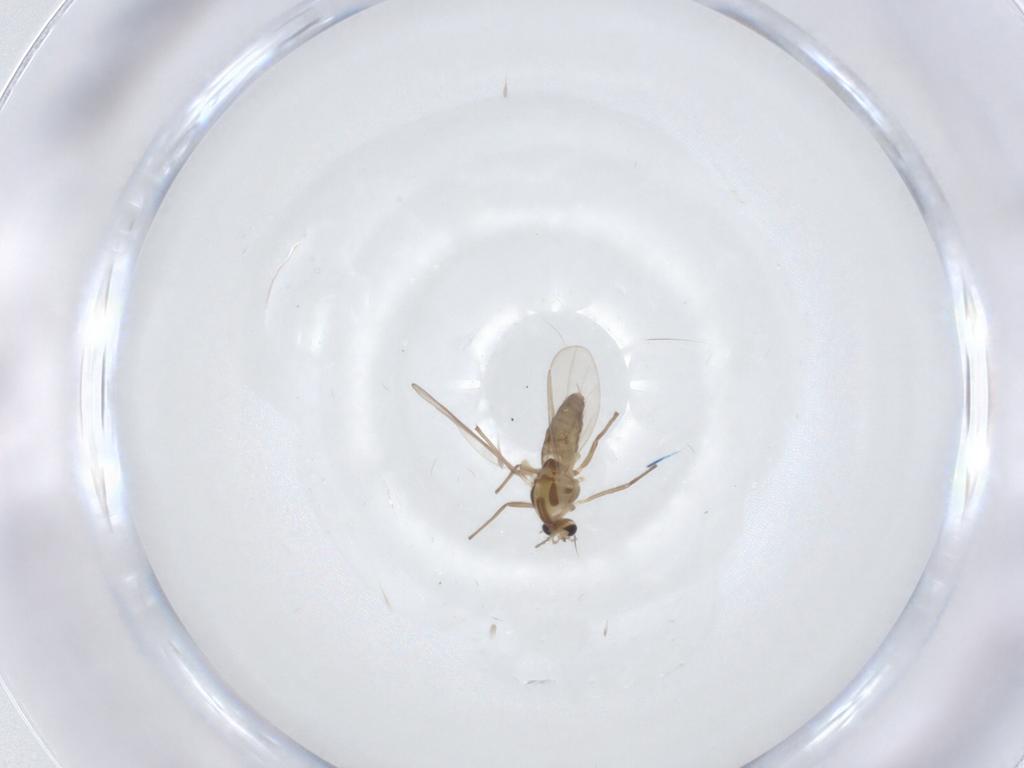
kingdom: Animalia
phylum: Arthropoda
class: Insecta
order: Diptera
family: Chironomidae
